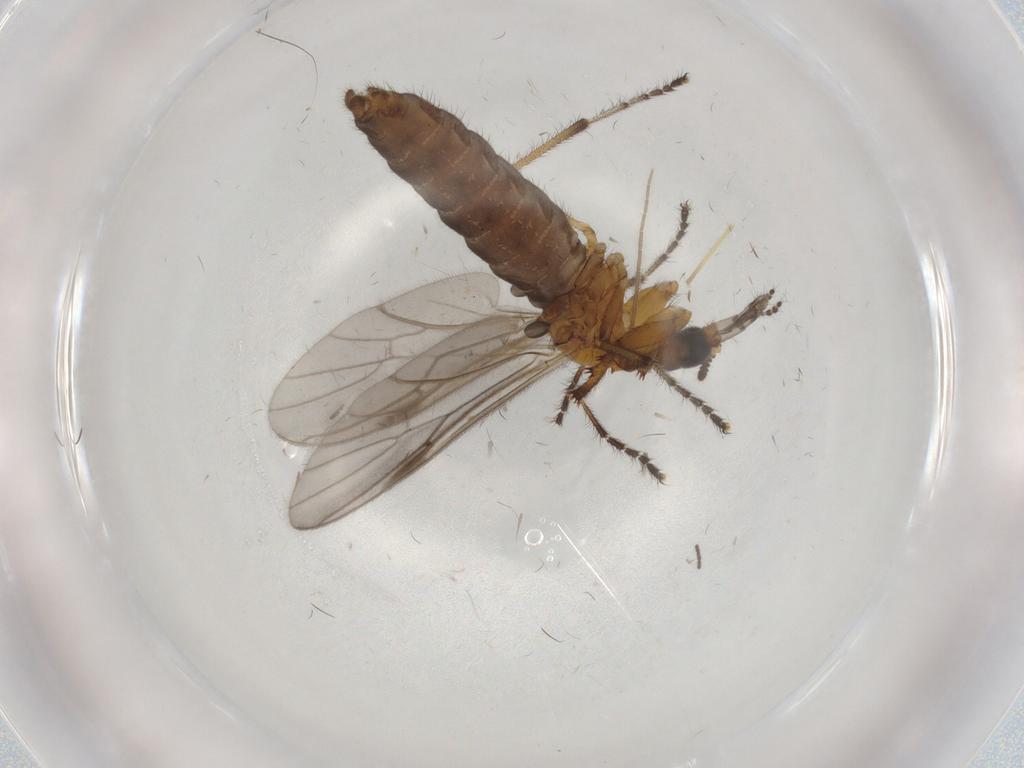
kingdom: Animalia
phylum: Arthropoda
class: Insecta
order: Diptera
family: Bibionidae
